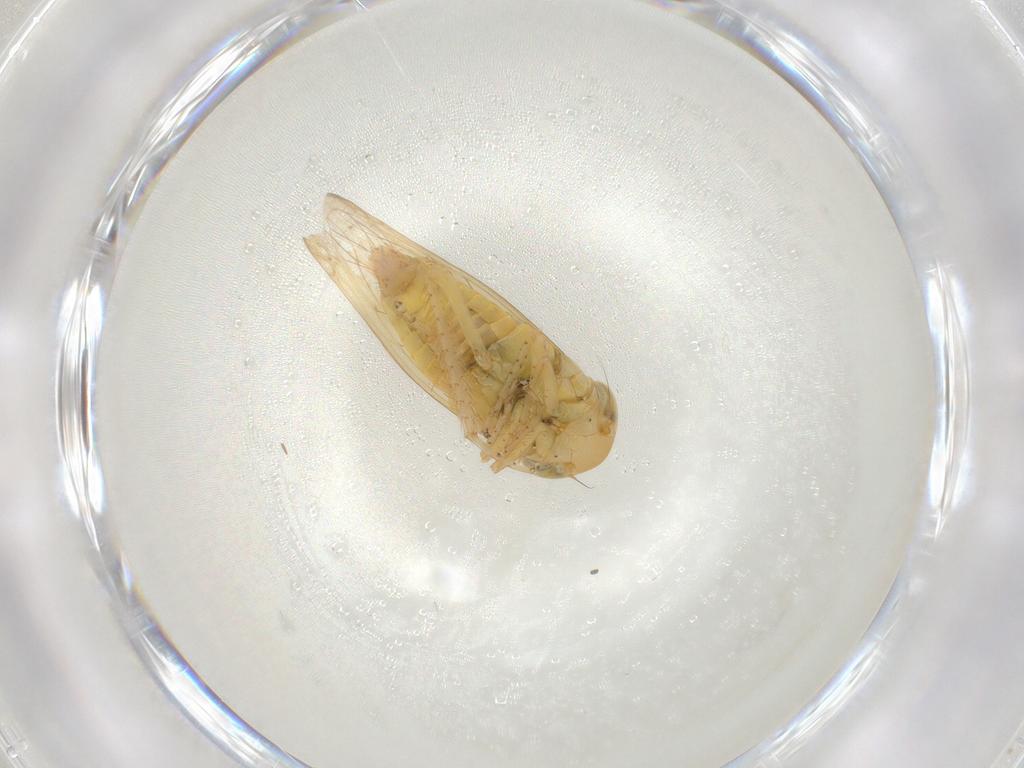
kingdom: Animalia
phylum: Arthropoda
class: Insecta
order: Hemiptera
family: Cicadellidae
